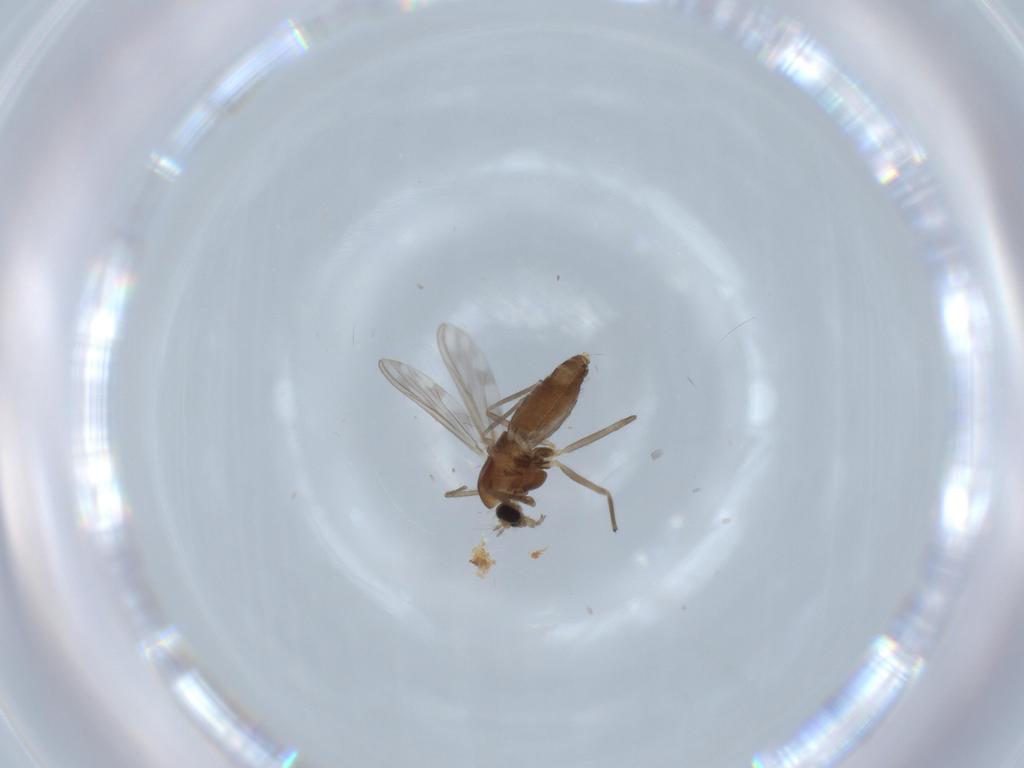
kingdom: Animalia
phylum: Arthropoda
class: Insecta
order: Diptera
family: Chironomidae
